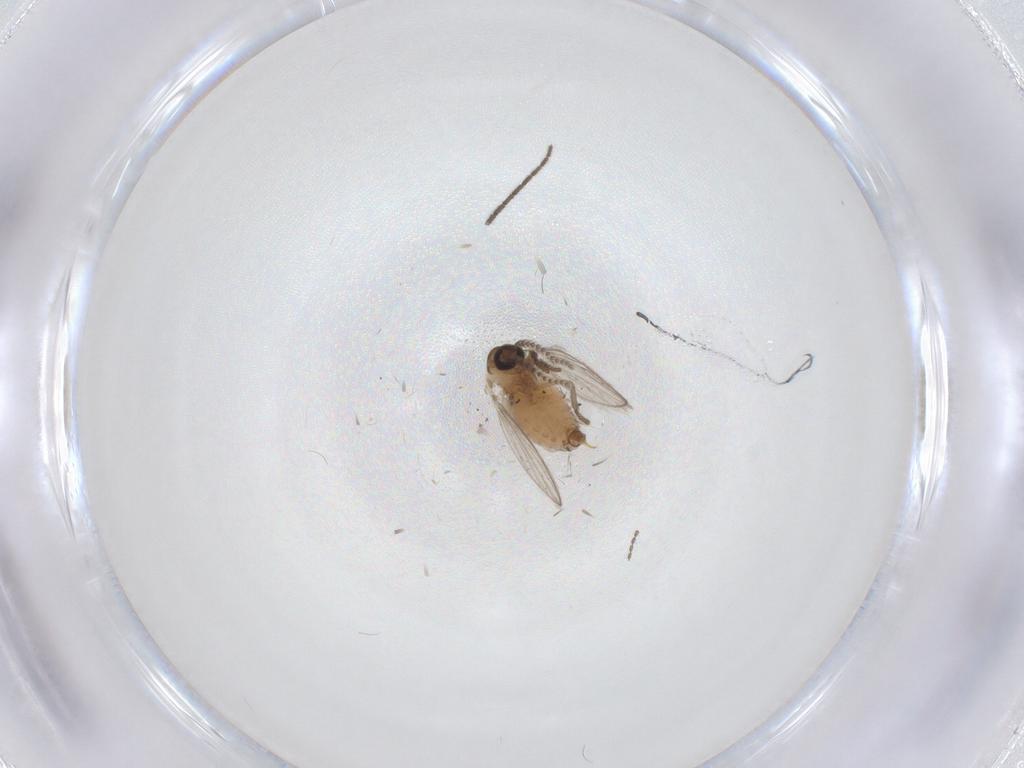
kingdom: Animalia
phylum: Arthropoda
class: Insecta
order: Diptera
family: Psychodidae
